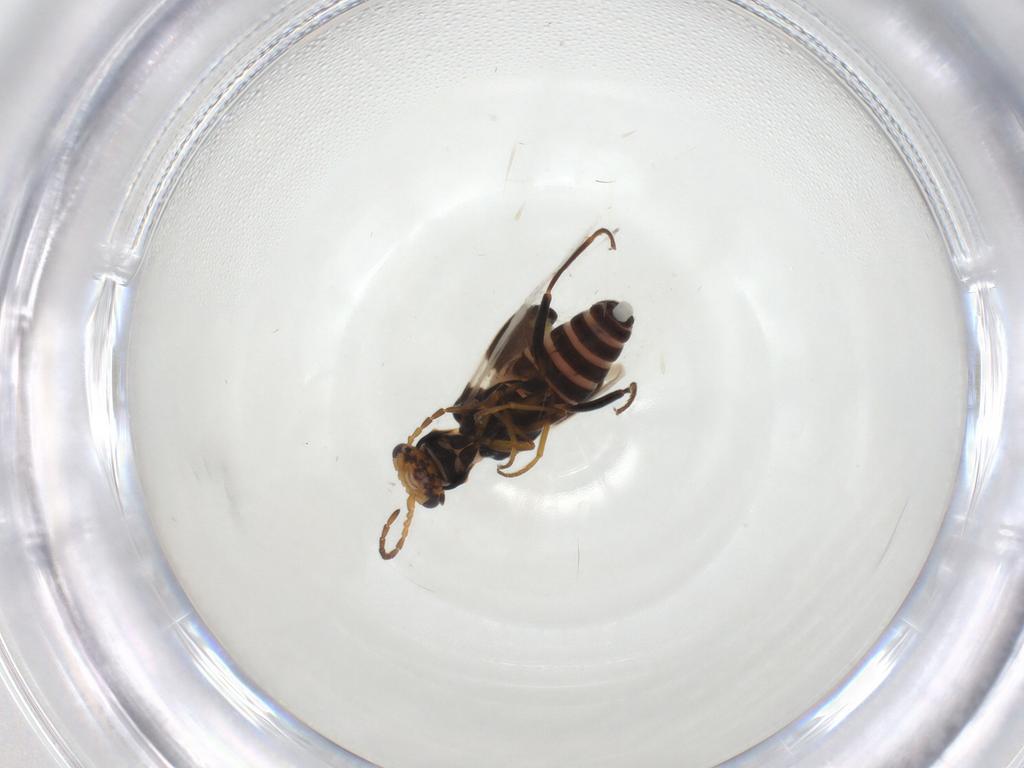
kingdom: Animalia
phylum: Arthropoda
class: Insecta
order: Coleoptera
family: Melyridae
